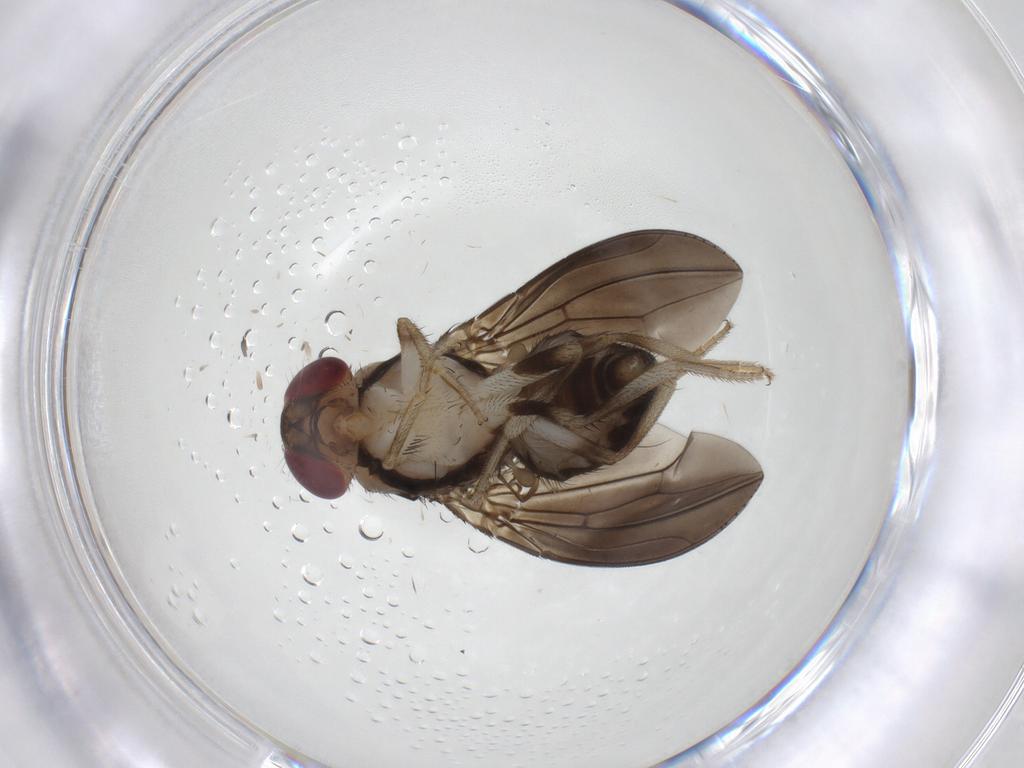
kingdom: Animalia
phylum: Arthropoda
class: Insecta
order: Diptera
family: Drosophilidae
